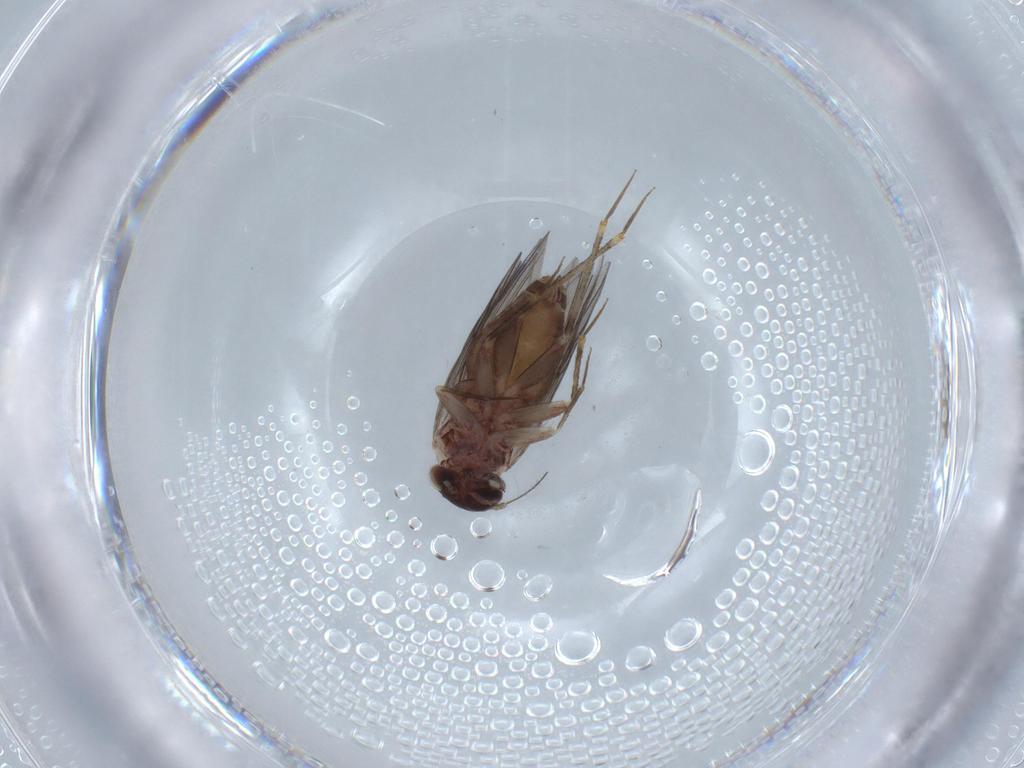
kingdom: Animalia
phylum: Arthropoda
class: Insecta
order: Psocodea
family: Lepidopsocidae
